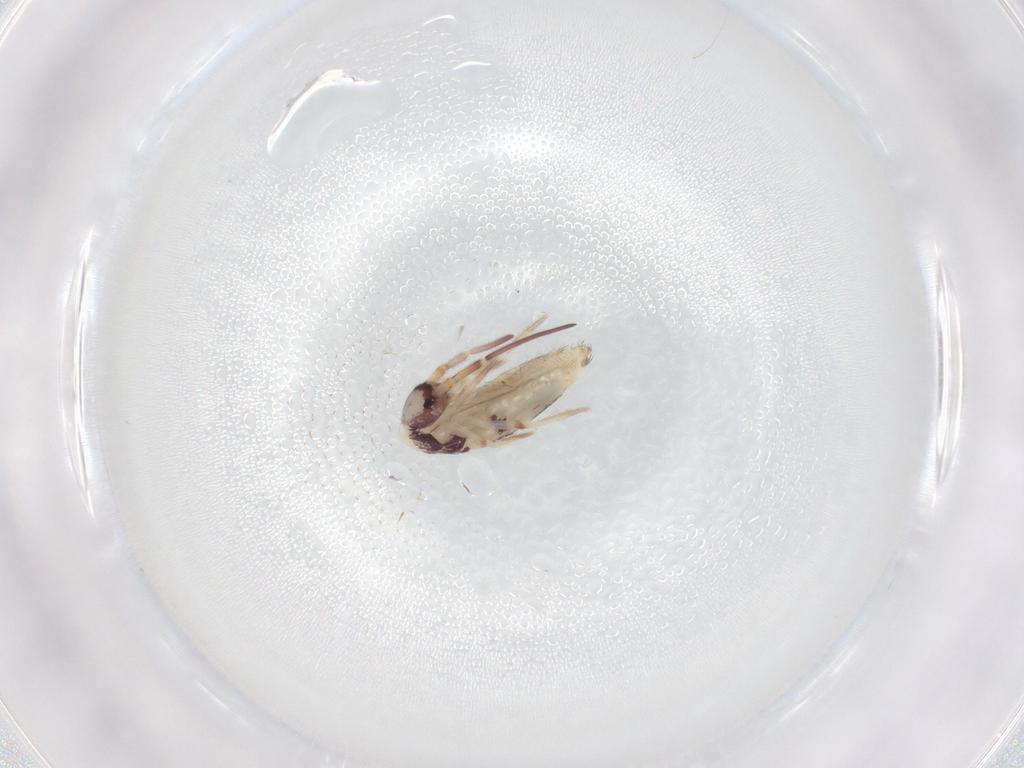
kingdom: Animalia
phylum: Arthropoda
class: Collembola
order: Entomobryomorpha
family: Entomobryidae
